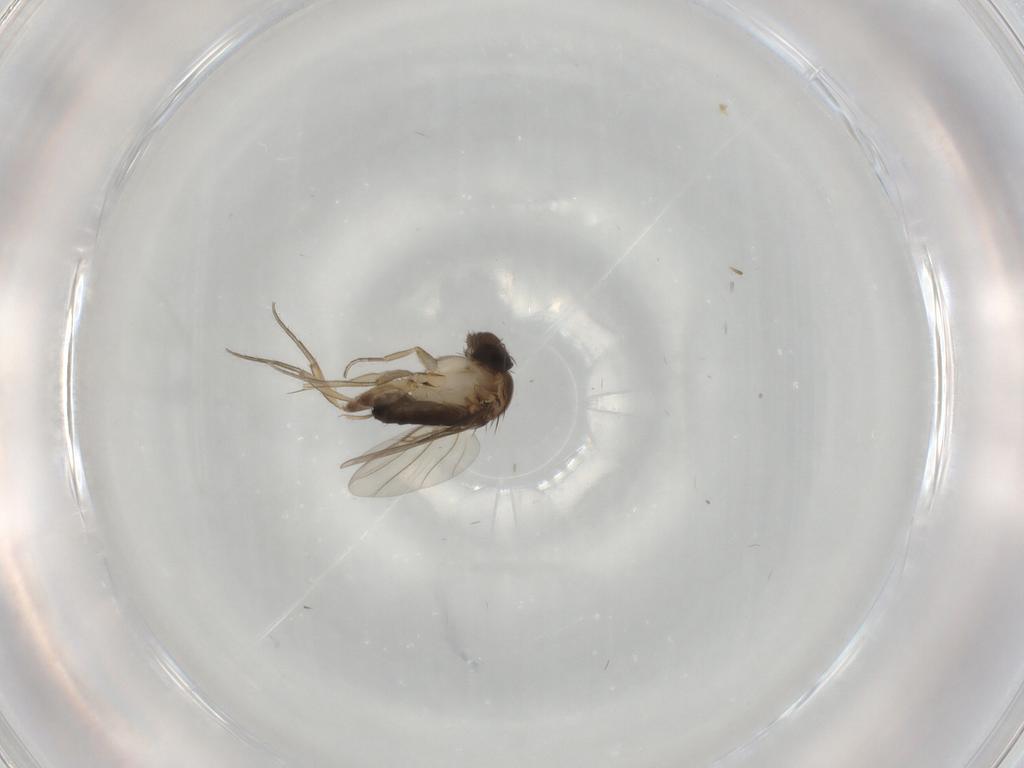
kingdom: Animalia
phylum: Arthropoda
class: Insecta
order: Diptera
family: Phoridae
